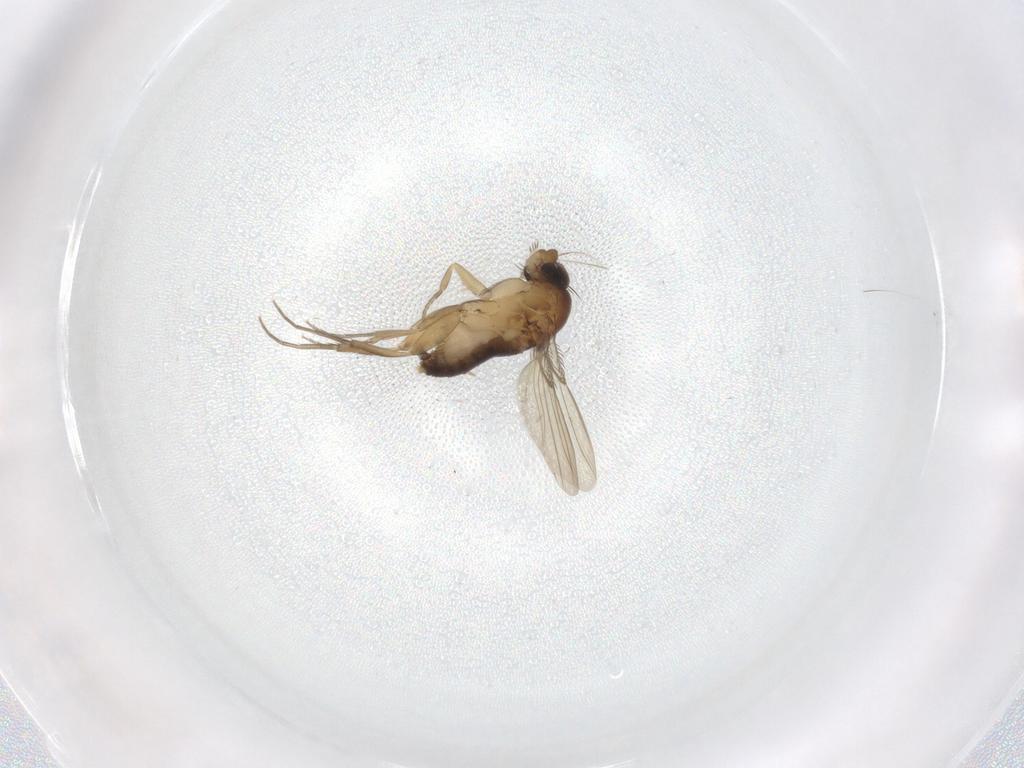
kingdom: Animalia
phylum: Arthropoda
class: Insecta
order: Diptera
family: Phoridae
